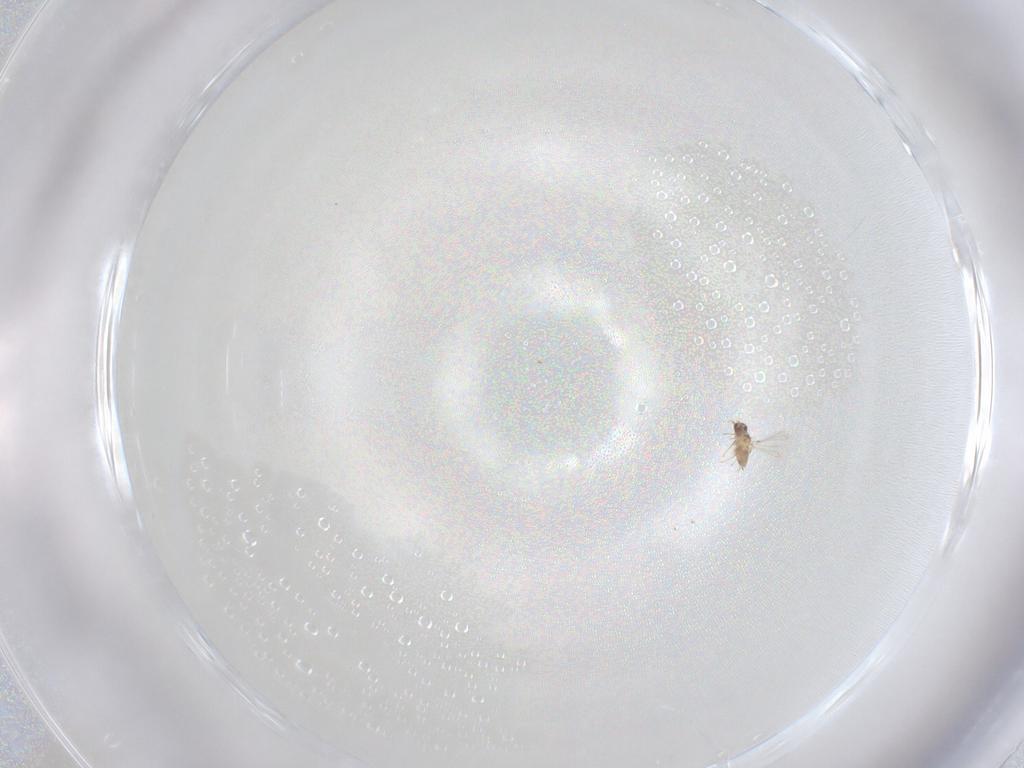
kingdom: Animalia
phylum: Arthropoda
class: Insecta
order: Hymenoptera
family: Mymaridae
